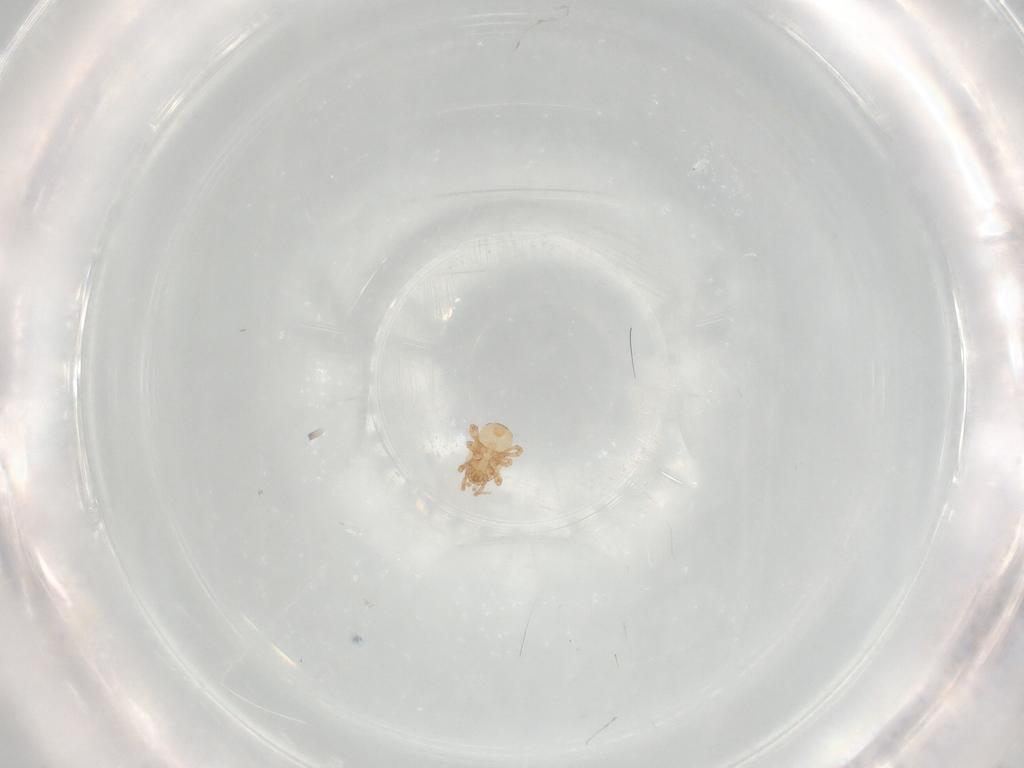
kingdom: Animalia
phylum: Arthropoda
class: Arachnida
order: Mesostigmata
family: Ascidae
